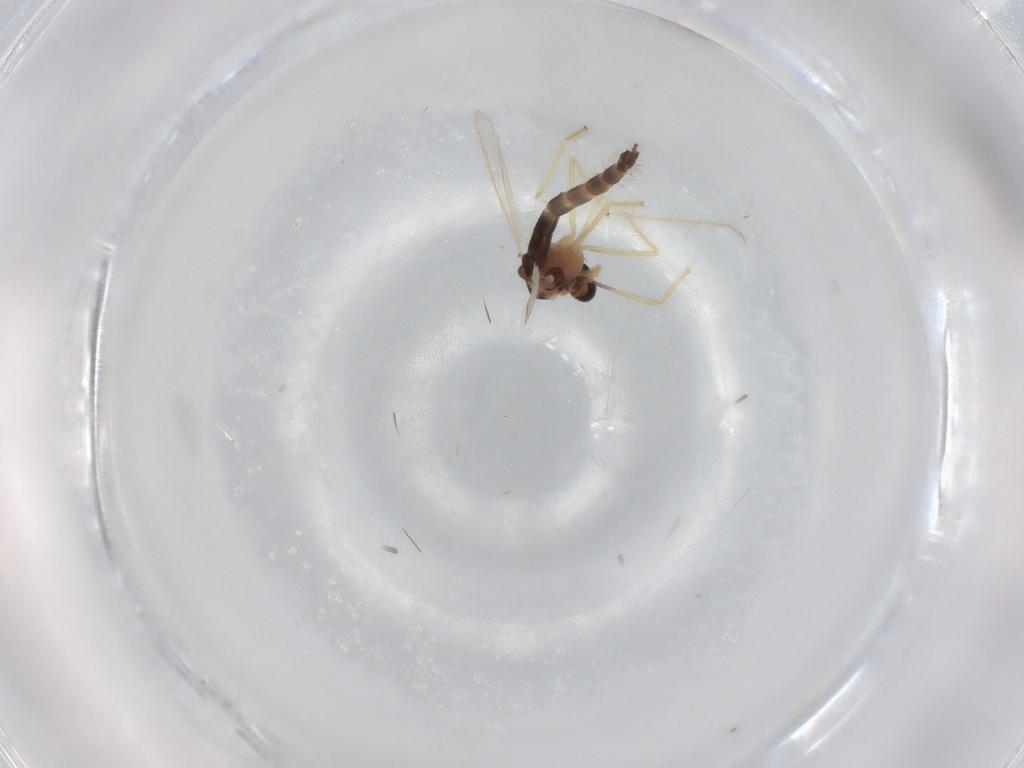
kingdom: Animalia
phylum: Arthropoda
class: Insecta
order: Diptera
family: Chironomidae
